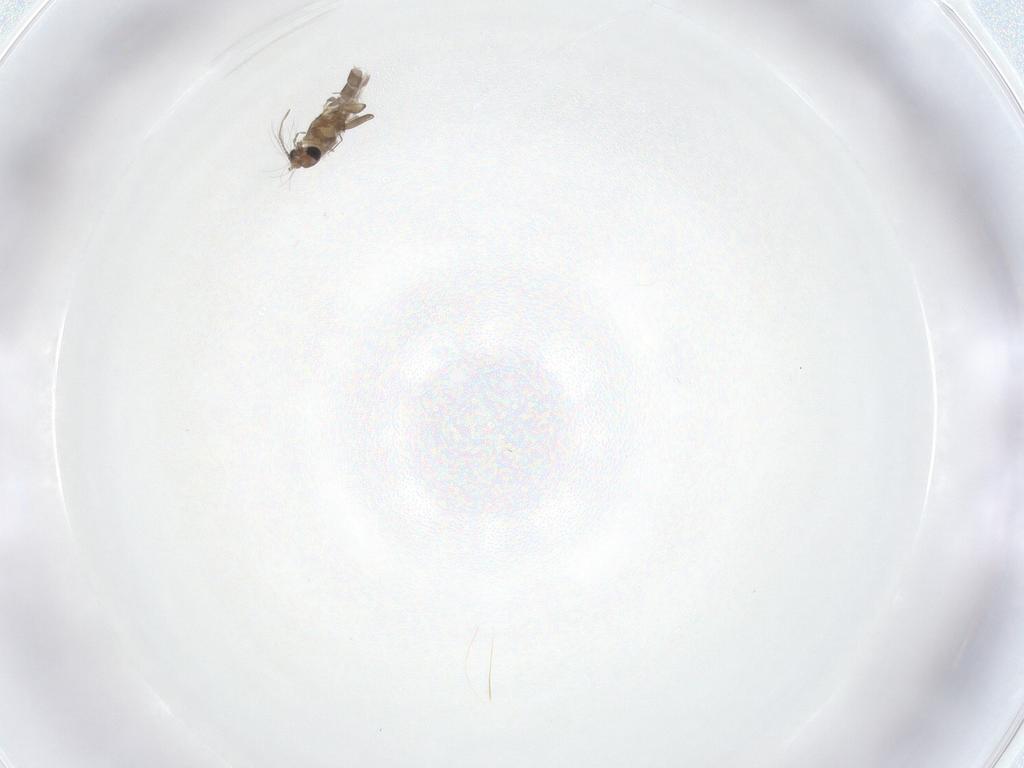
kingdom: Animalia
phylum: Arthropoda
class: Insecta
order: Diptera
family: Chironomidae
